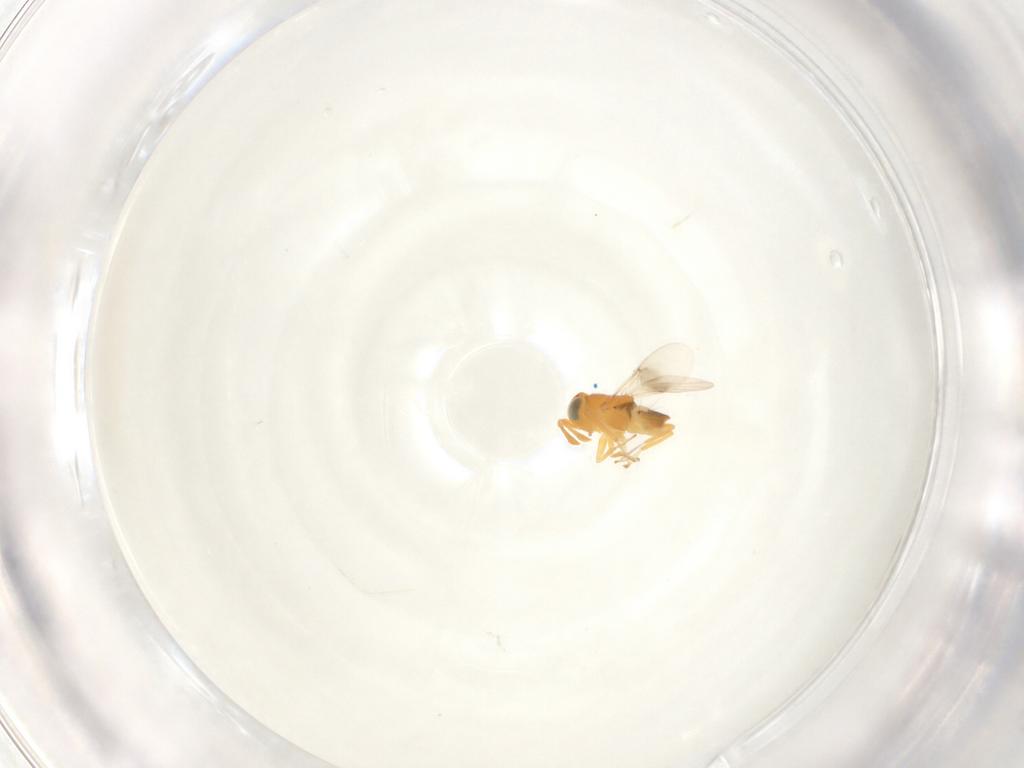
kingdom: Animalia
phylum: Arthropoda
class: Insecta
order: Hymenoptera
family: Encyrtidae
